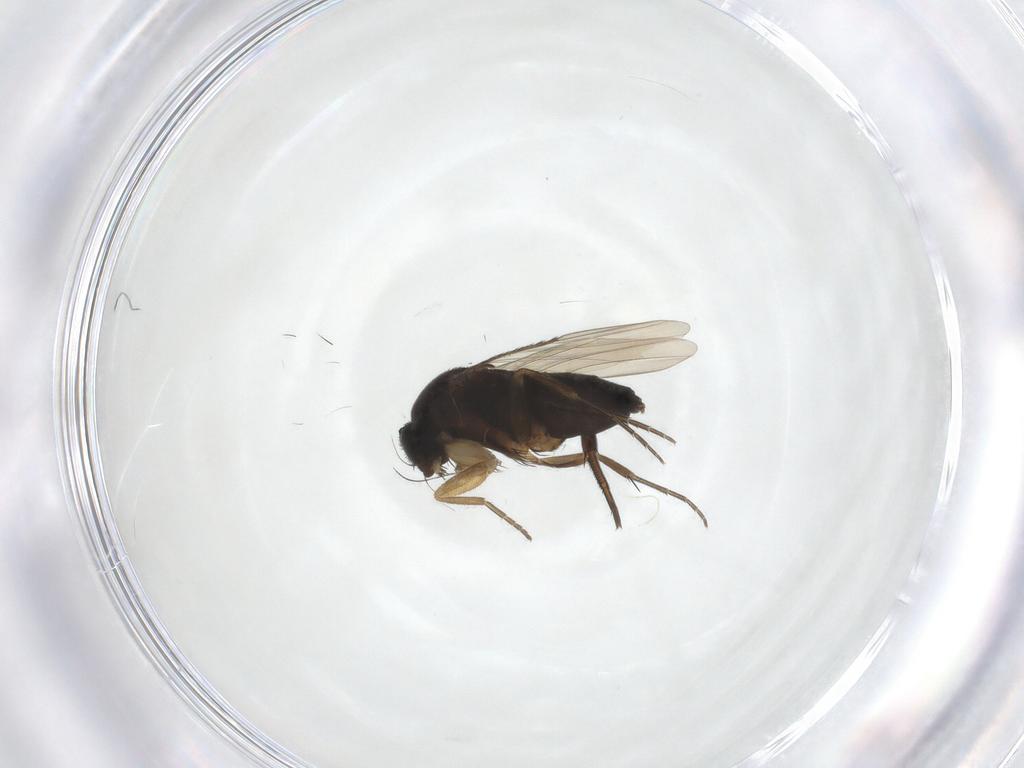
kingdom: Animalia
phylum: Arthropoda
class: Insecta
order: Diptera
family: Phoridae
